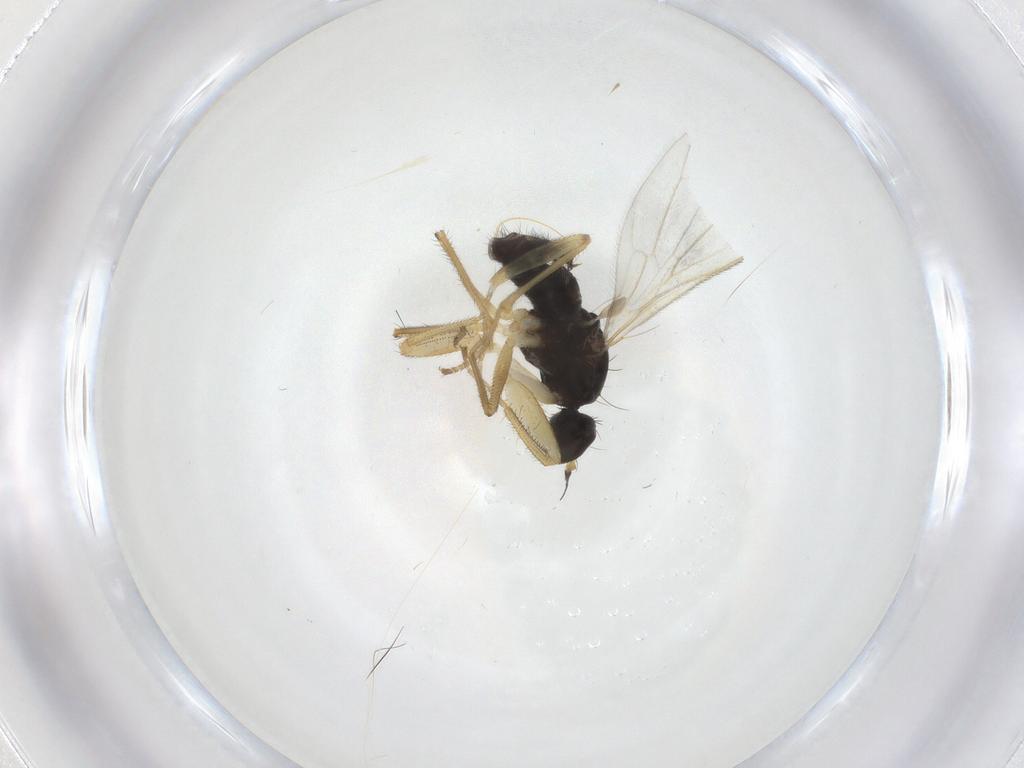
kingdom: Animalia
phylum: Arthropoda
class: Insecta
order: Diptera
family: Empididae
